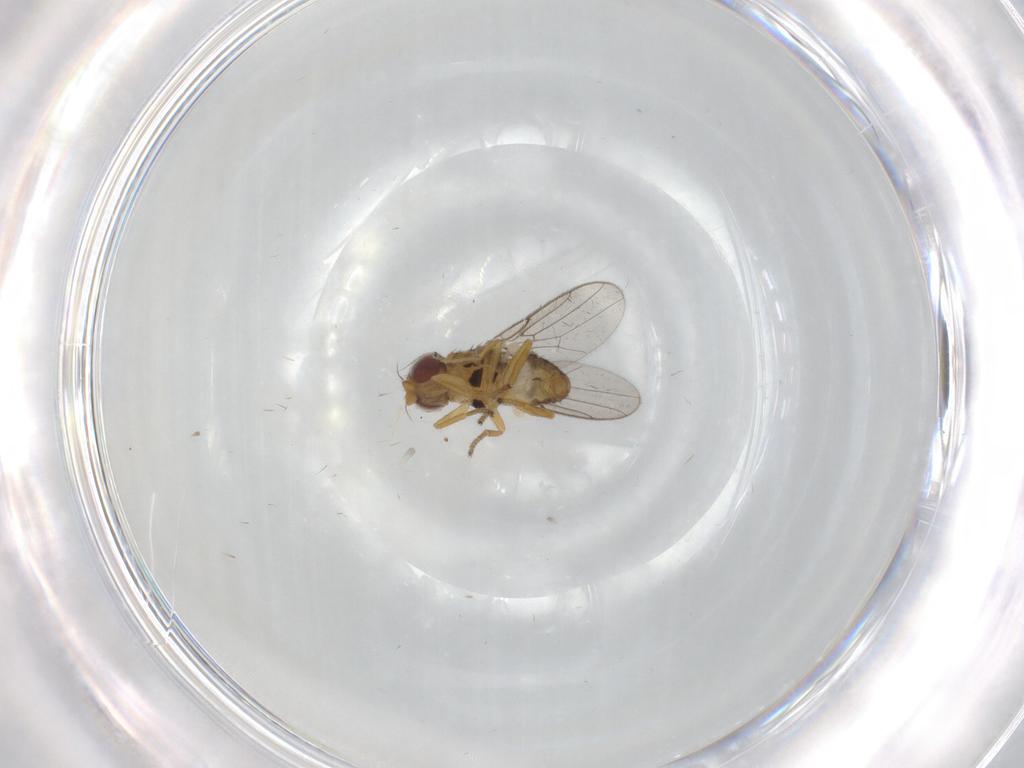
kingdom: Animalia
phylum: Arthropoda
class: Insecta
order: Diptera
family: Chloropidae
